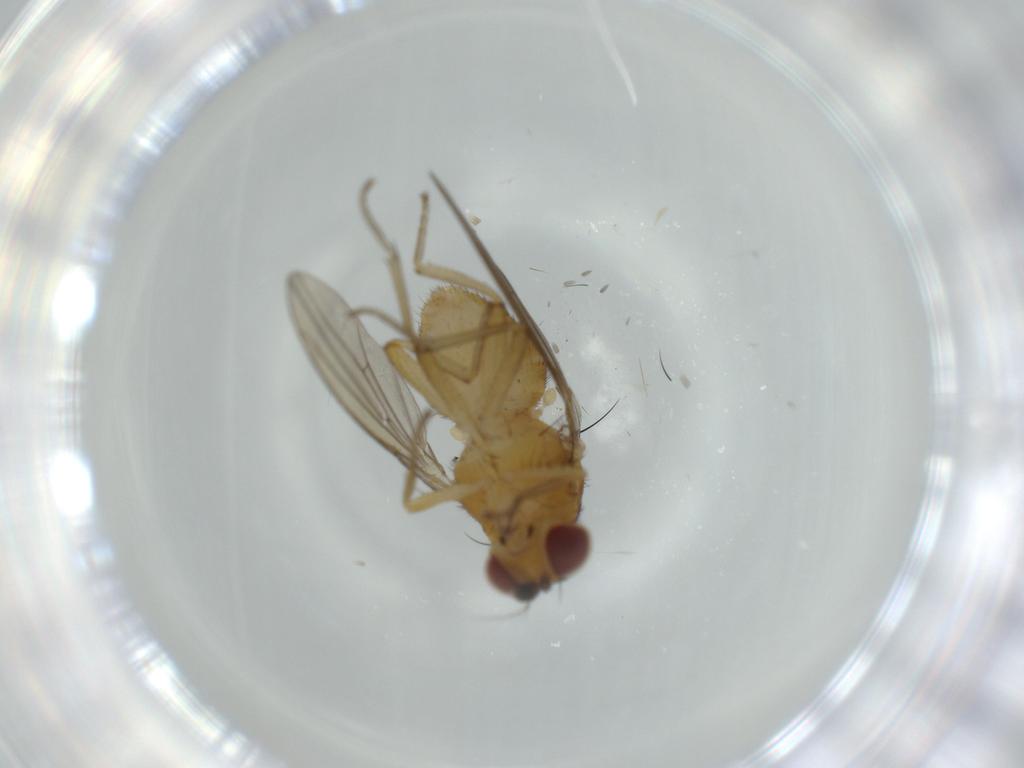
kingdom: Animalia
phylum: Arthropoda
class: Insecta
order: Diptera
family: Lauxaniidae
